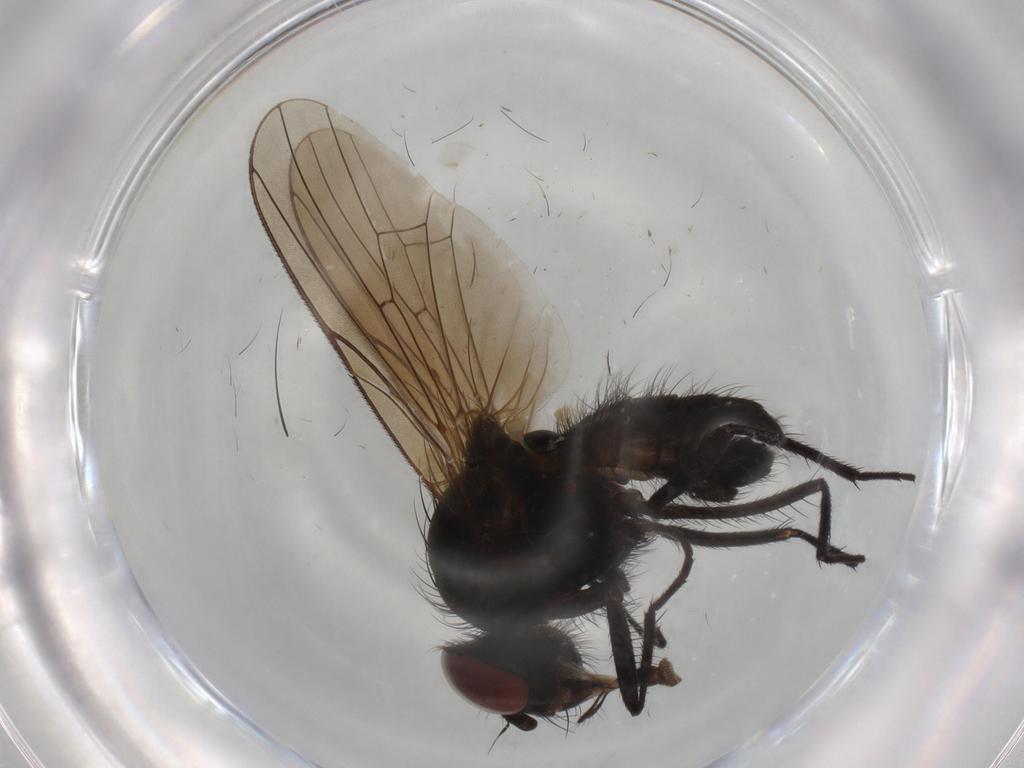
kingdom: Animalia
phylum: Arthropoda
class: Insecta
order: Diptera
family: Anthomyiidae
